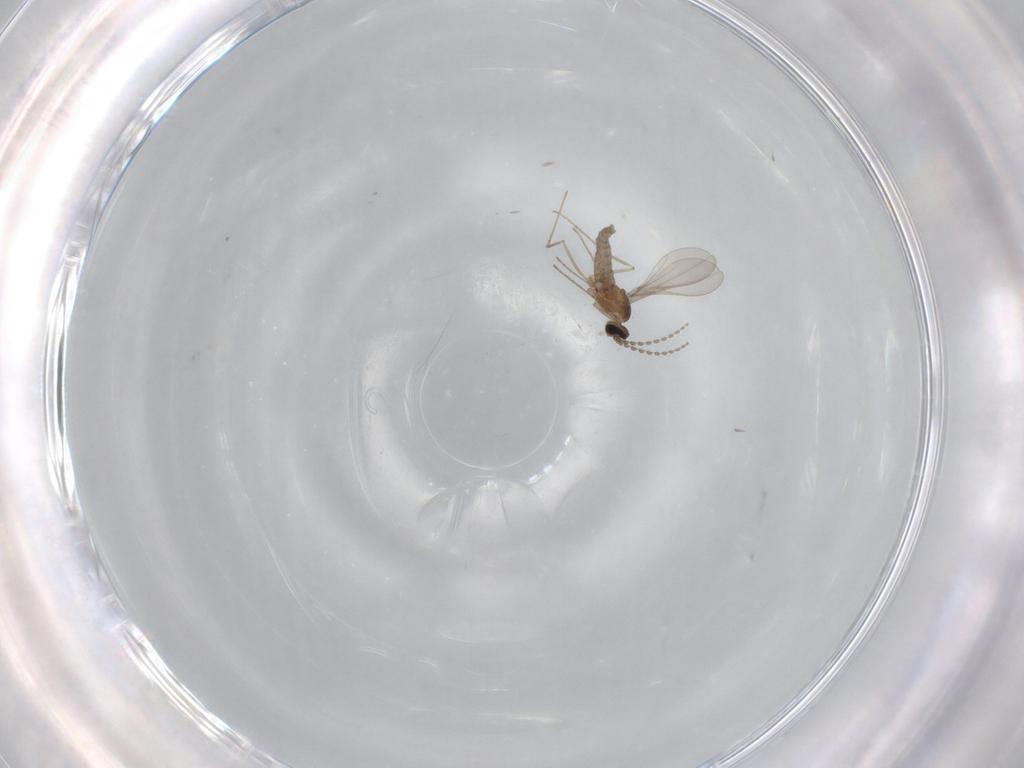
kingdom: Animalia
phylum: Arthropoda
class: Insecta
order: Diptera
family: Cecidomyiidae
